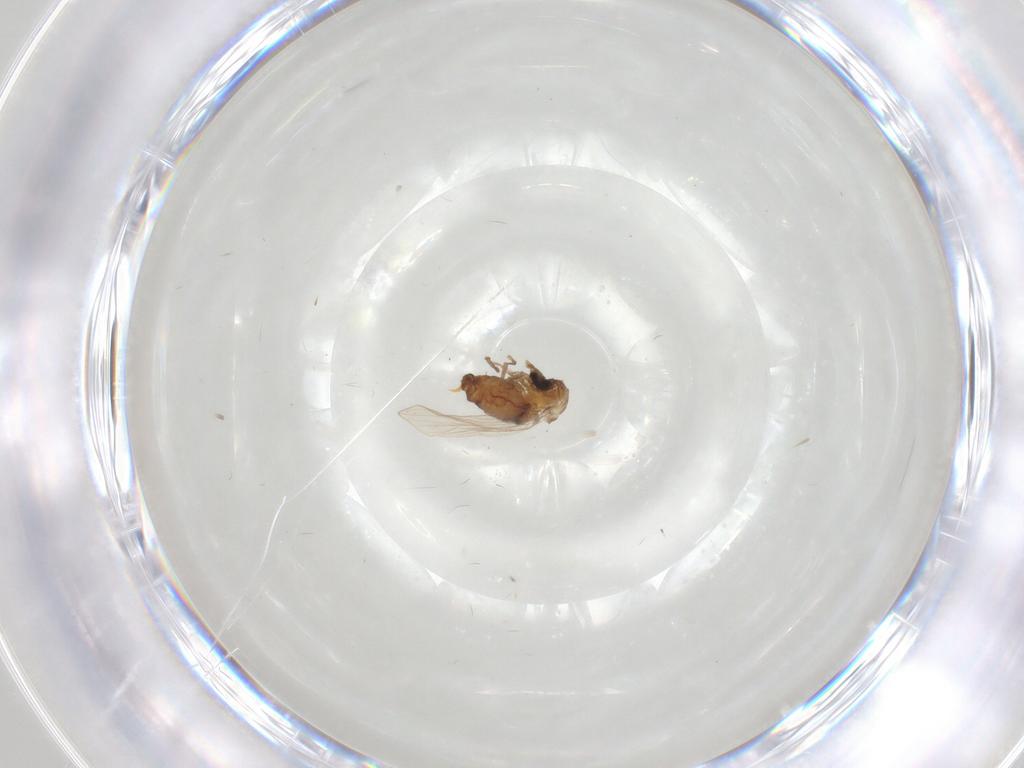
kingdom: Animalia
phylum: Arthropoda
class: Insecta
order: Diptera
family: Psychodidae
